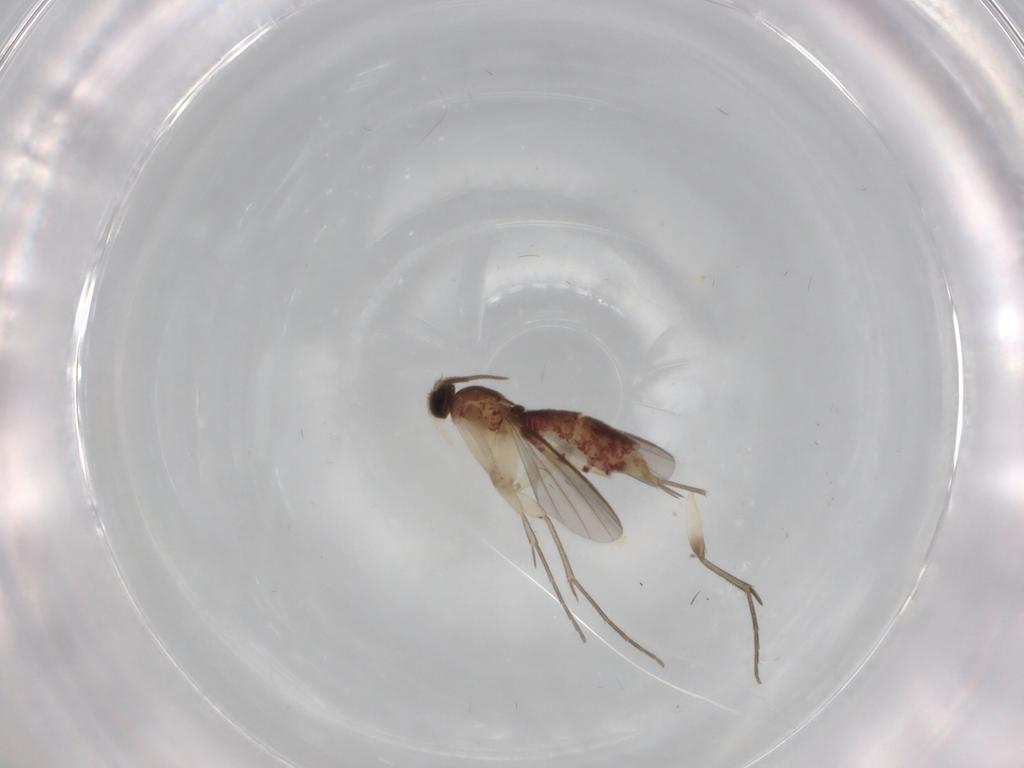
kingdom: Animalia
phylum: Arthropoda
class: Insecta
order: Diptera
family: Mycetophilidae
